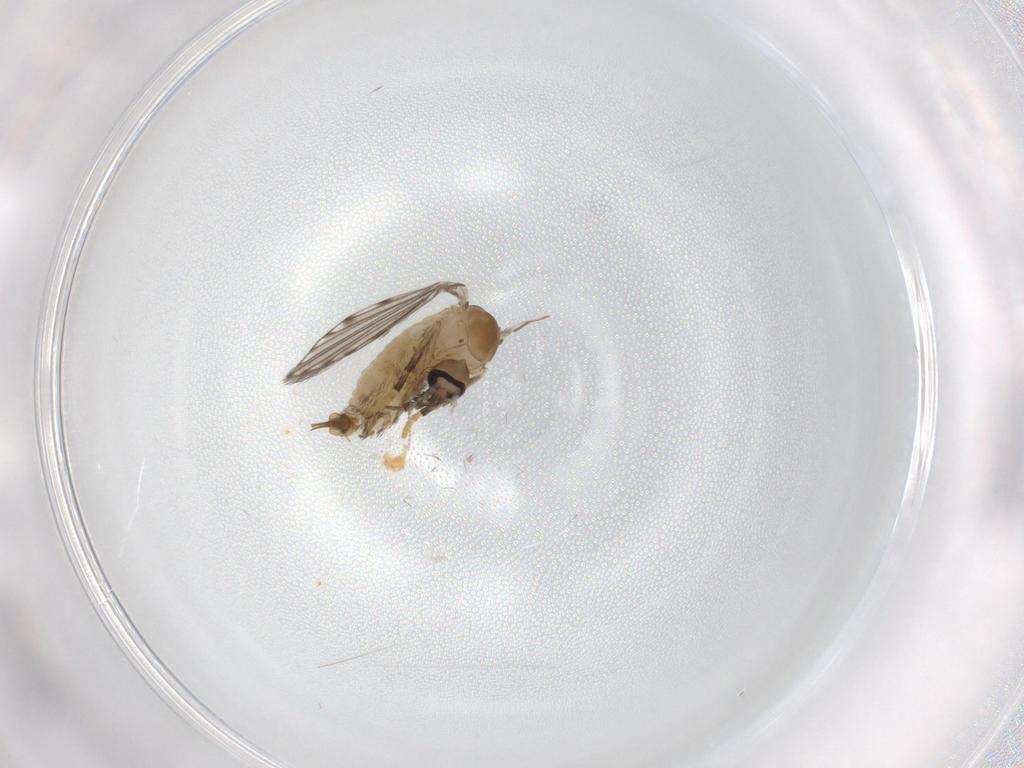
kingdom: Animalia
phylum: Arthropoda
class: Insecta
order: Diptera
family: Psychodidae
